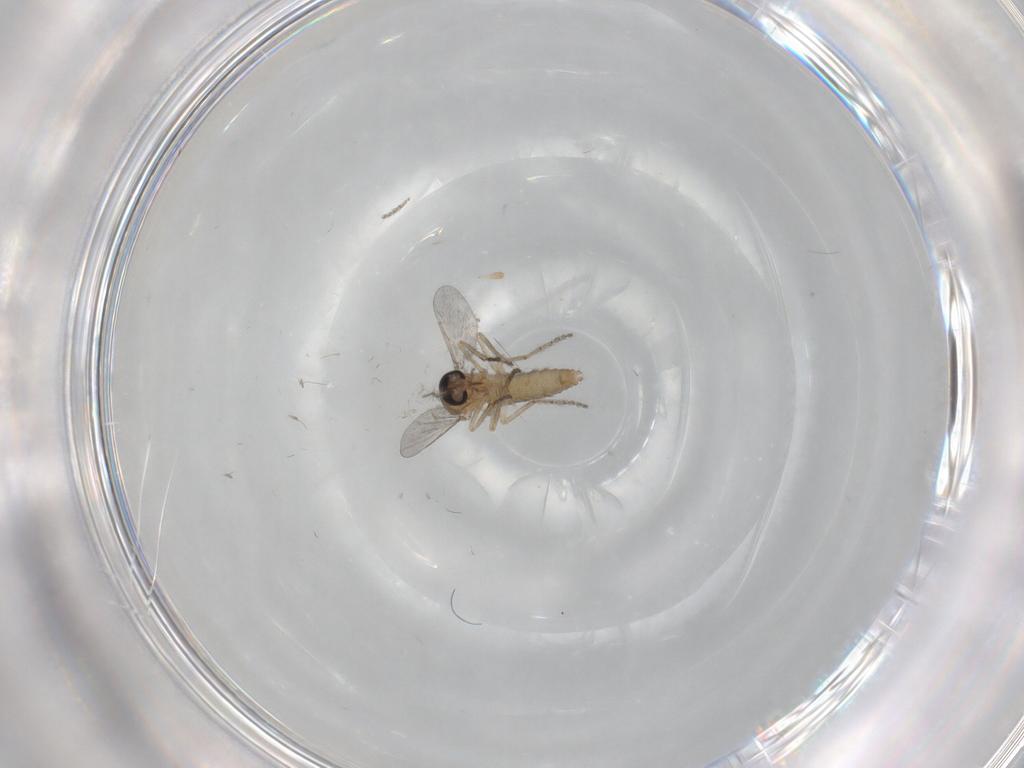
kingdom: Animalia
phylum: Arthropoda
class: Insecta
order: Diptera
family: Ceratopogonidae
